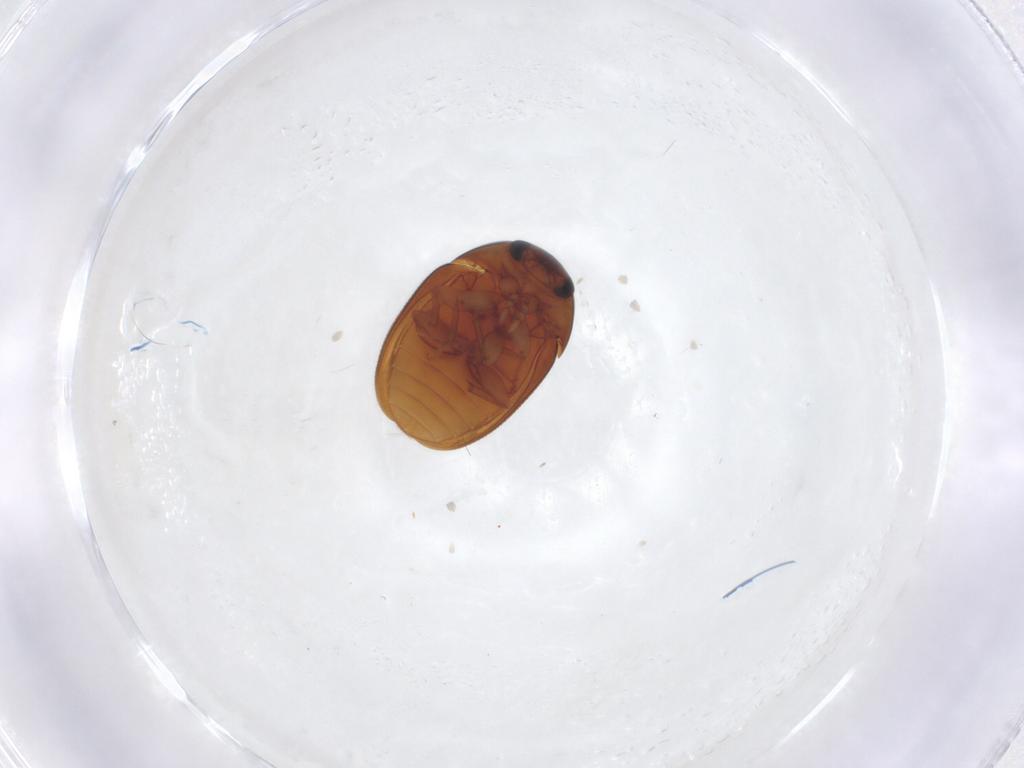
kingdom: Animalia
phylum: Arthropoda
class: Insecta
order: Coleoptera
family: Phalacridae
